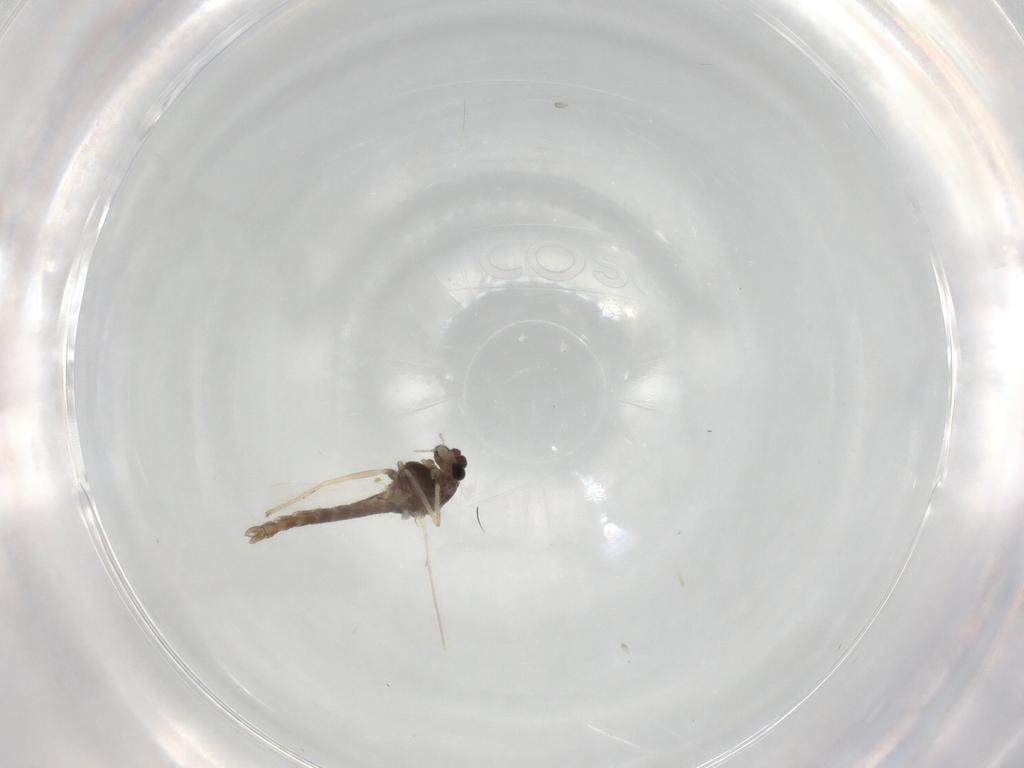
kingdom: Animalia
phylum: Arthropoda
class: Insecta
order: Diptera
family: Chironomidae
